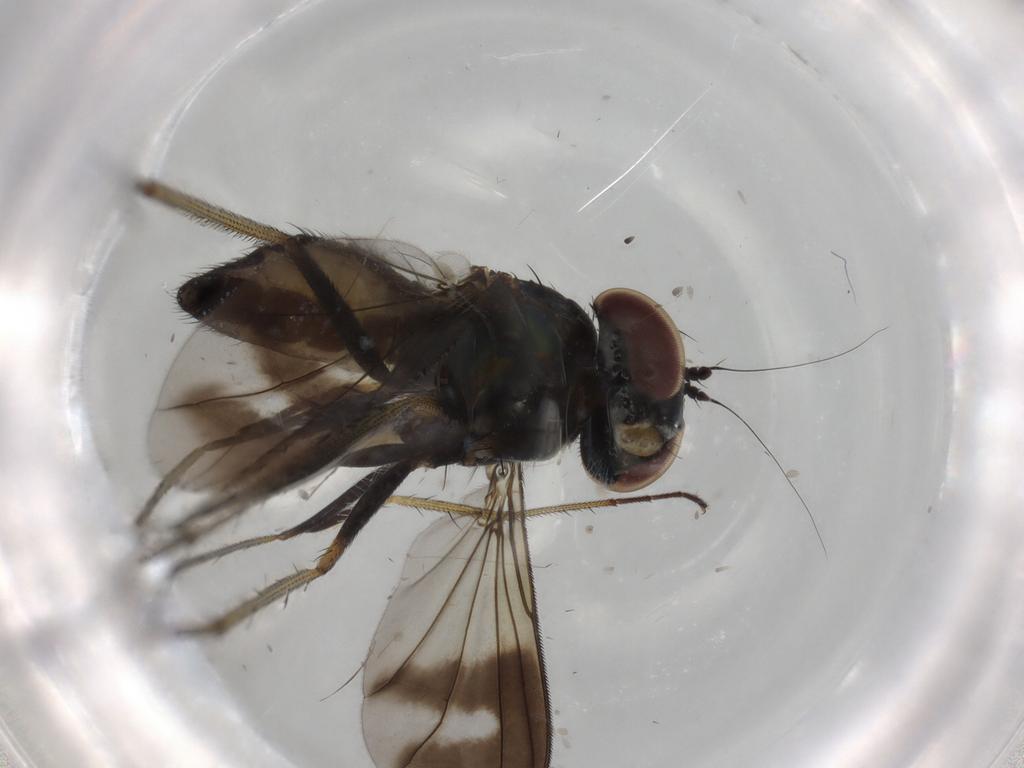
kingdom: Animalia
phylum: Arthropoda
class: Insecta
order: Diptera
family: Dolichopodidae
